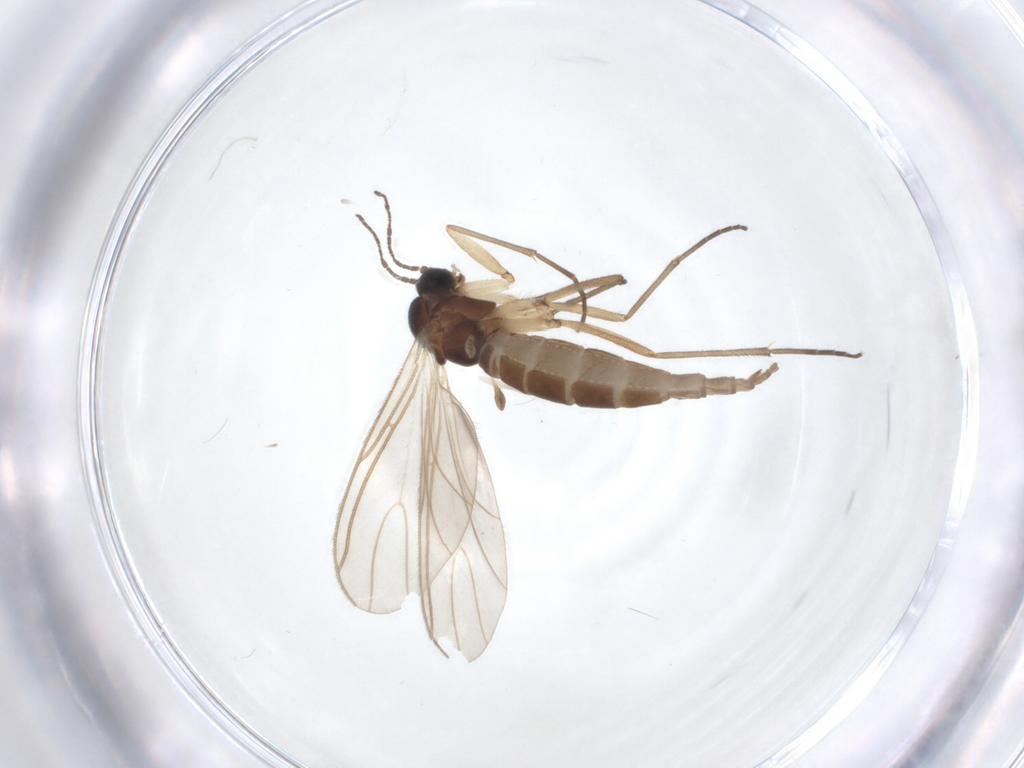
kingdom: Animalia
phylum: Arthropoda
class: Insecta
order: Diptera
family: Sciaridae
